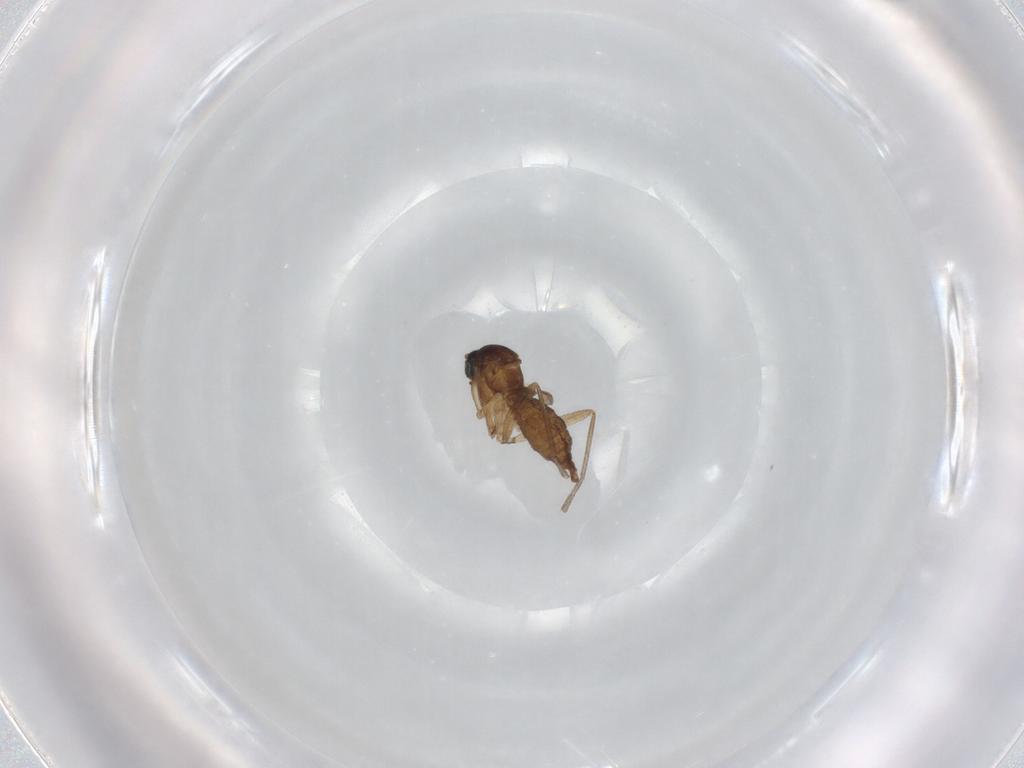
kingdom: Animalia
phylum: Arthropoda
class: Insecta
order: Diptera
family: Sciaridae
